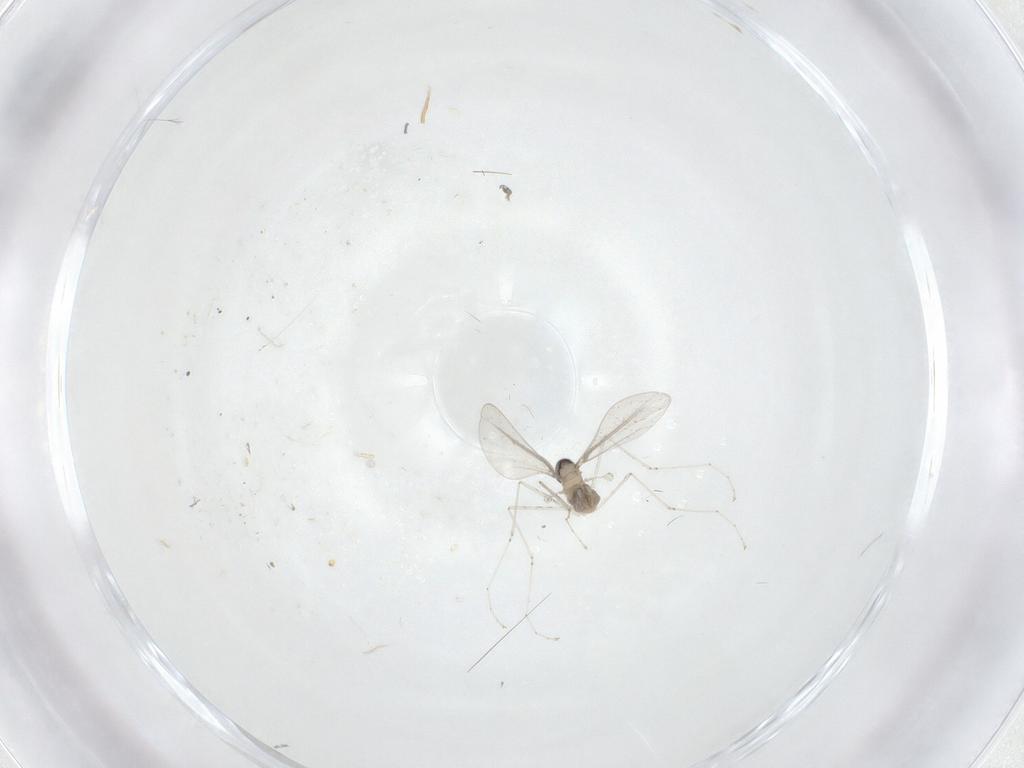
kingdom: Animalia
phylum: Arthropoda
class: Insecta
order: Diptera
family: Cecidomyiidae
